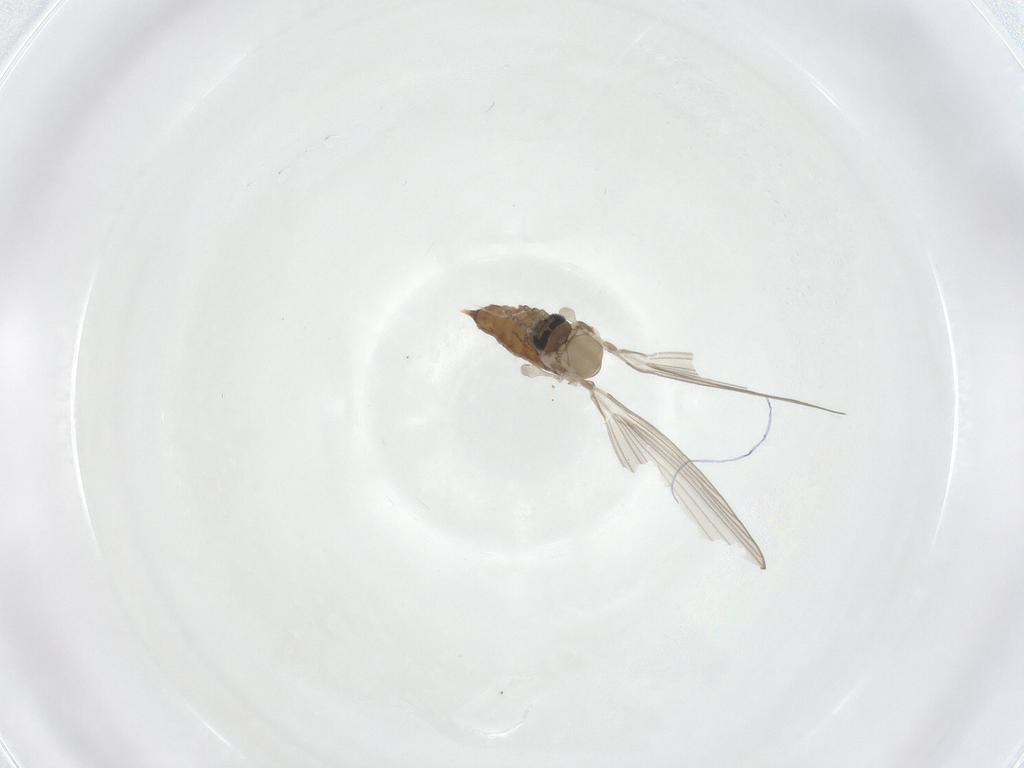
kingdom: Animalia
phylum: Arthropoda
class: Insecta
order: Diptera
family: Psychodidae
